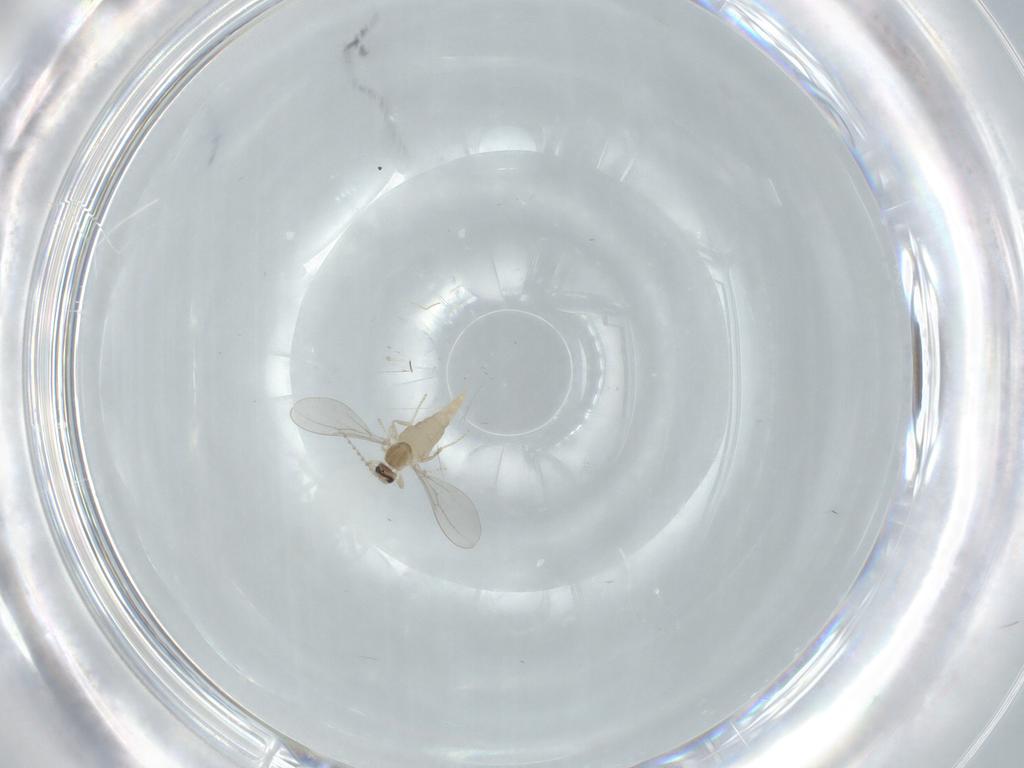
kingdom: Animalia
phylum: Arthropoda
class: Insecta
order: Diptera
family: Cecidomyiidae
